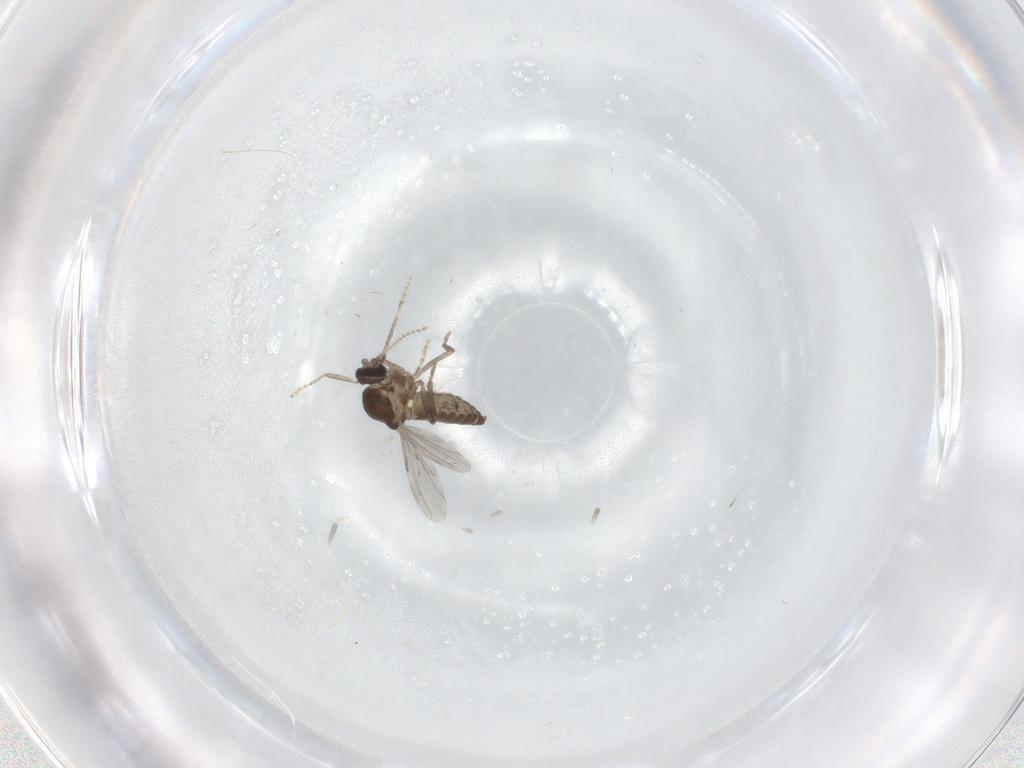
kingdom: Animalia
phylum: Arthropoda
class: Insecta
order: Diptera
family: Ceratopogonidae
